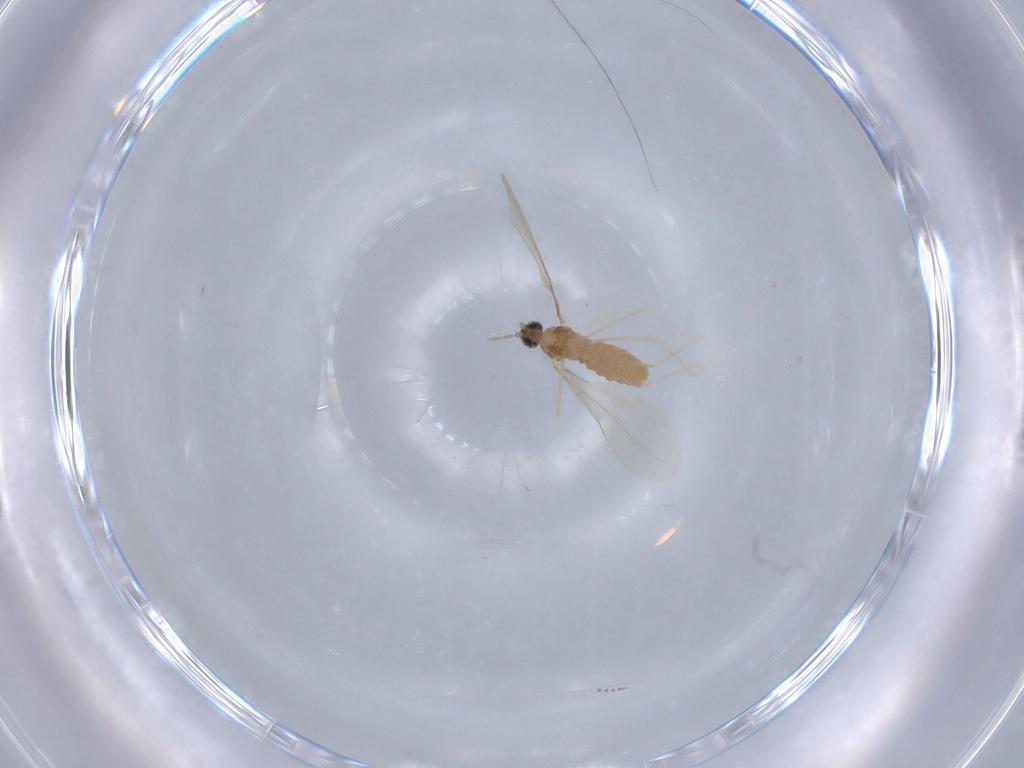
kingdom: Animalia
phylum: Arthropoda
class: Insecta
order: Diptera
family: Cecidomyiidae
